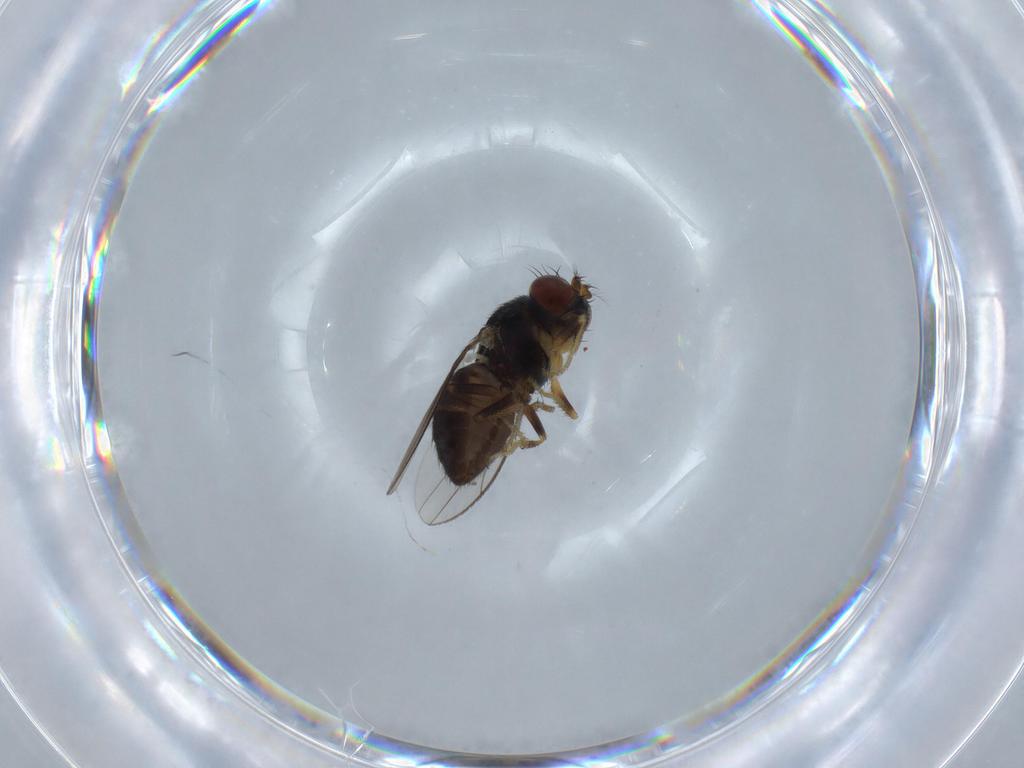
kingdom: Animalia
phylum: Arthropoda
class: Insecta
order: Diptera
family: Drosophilidae
